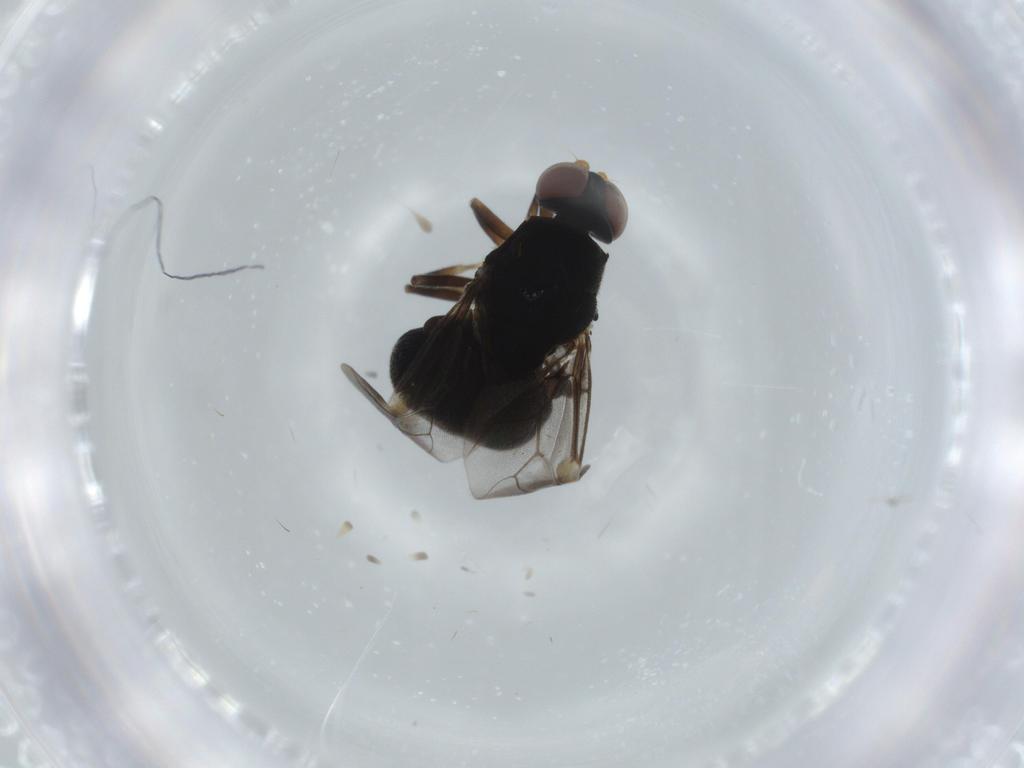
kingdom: Animalia
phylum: Arthropoda
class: Insecta
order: Diptera
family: Stratiomyidae
